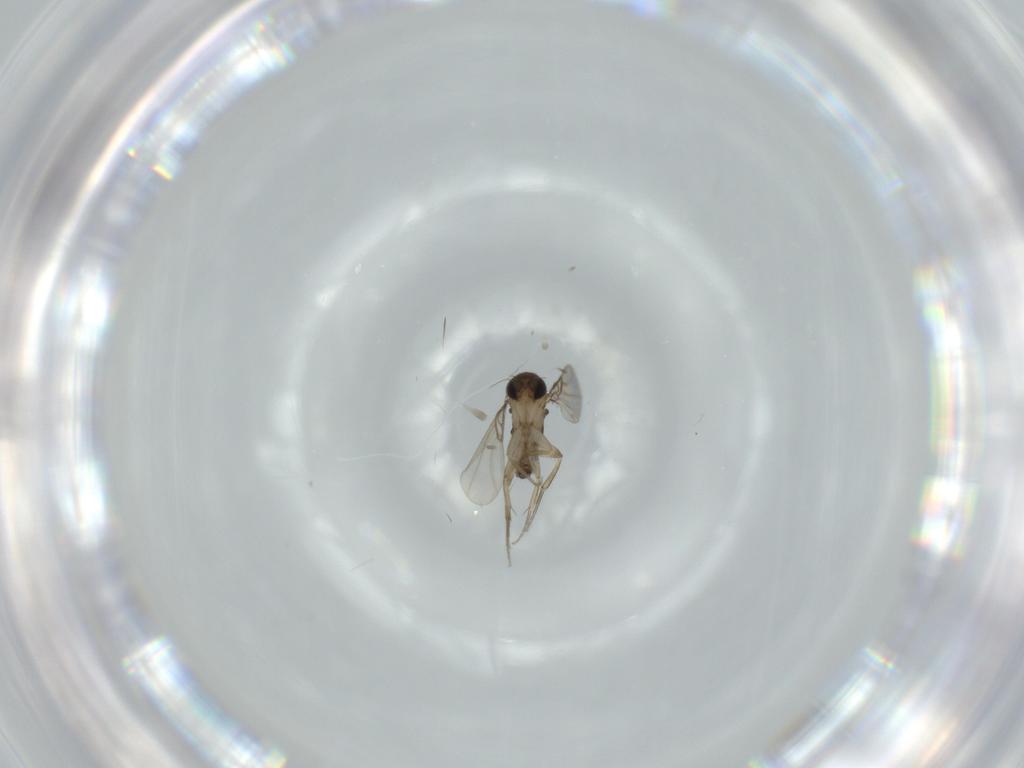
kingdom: Animalia
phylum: Arthropoda
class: Insecta
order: Diptera
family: Phoridae
